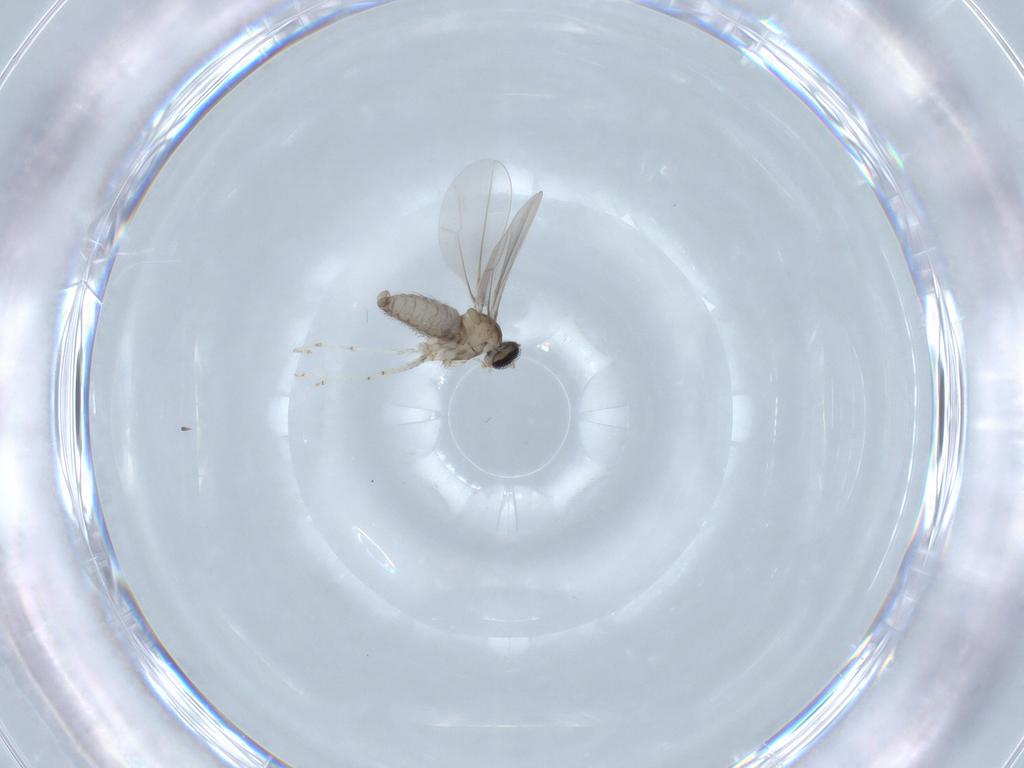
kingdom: Animalia
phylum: Arthropoda
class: Insecta
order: Diptera
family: Cecidomyiidae
